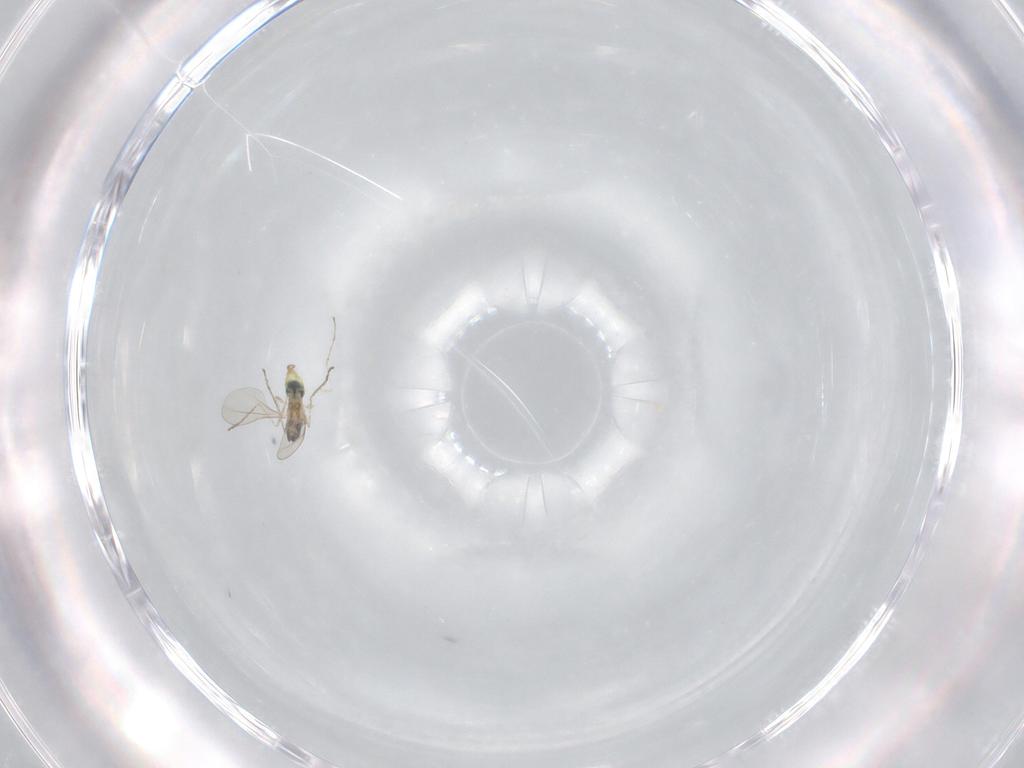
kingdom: Animalia
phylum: Arthropoda
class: Insecta
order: Diptera
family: Cecidomyiidae
